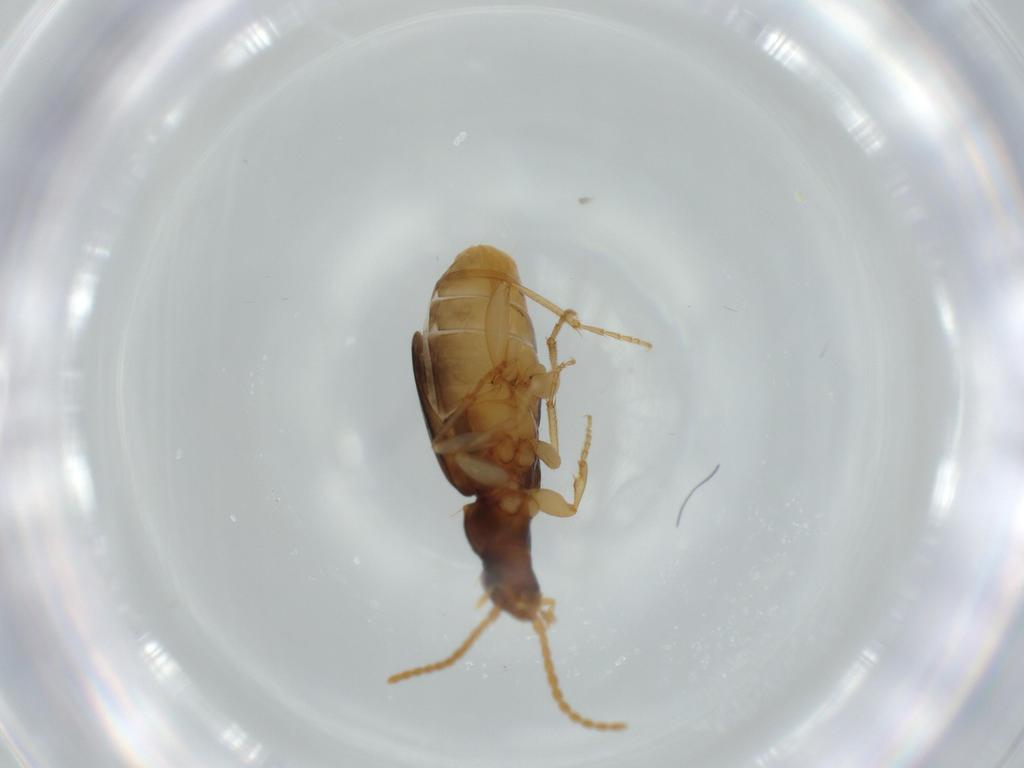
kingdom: Animalia
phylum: Arthropoda
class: Insecta
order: Coleoptera
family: Carabidae
